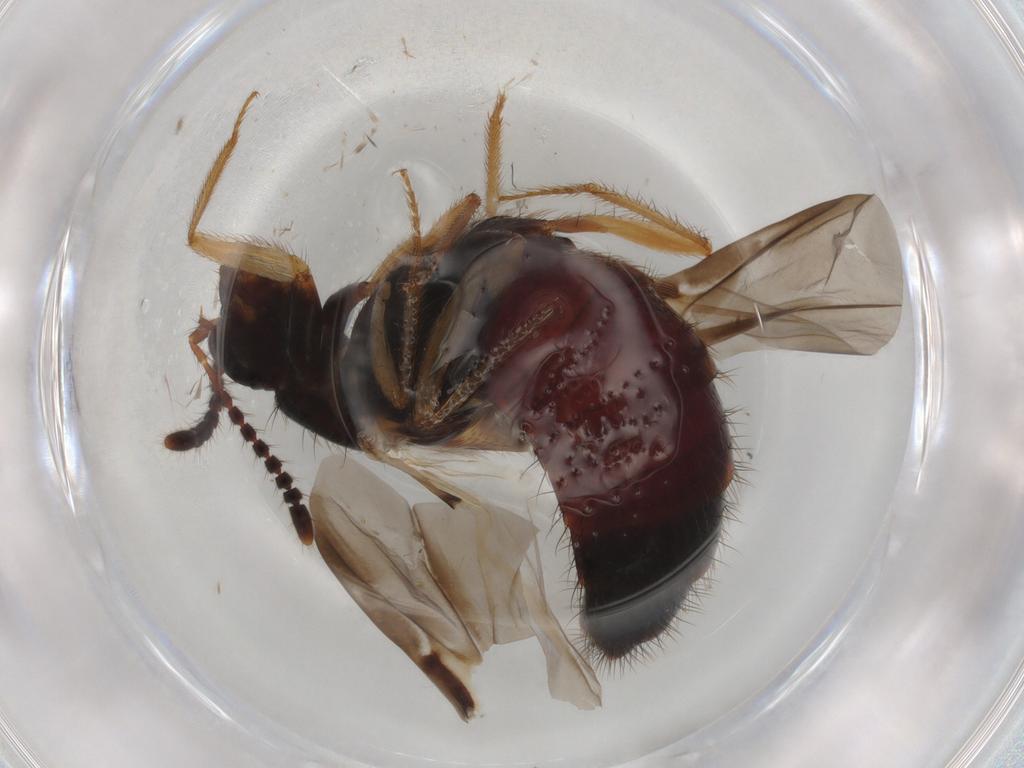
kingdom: Animalia
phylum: Arthropoda
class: Insecta
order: Coleoptera
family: Staphylinidae
